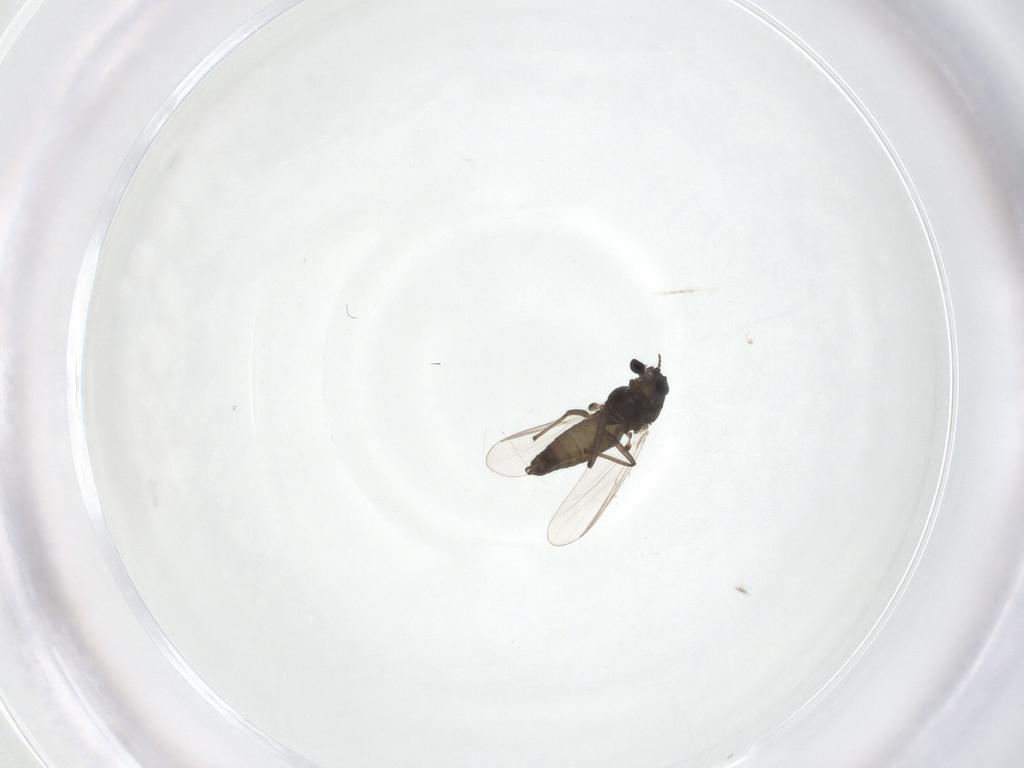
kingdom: Animalia
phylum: Arthropoda
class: Insecta
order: Diptera
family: Chironomidae
